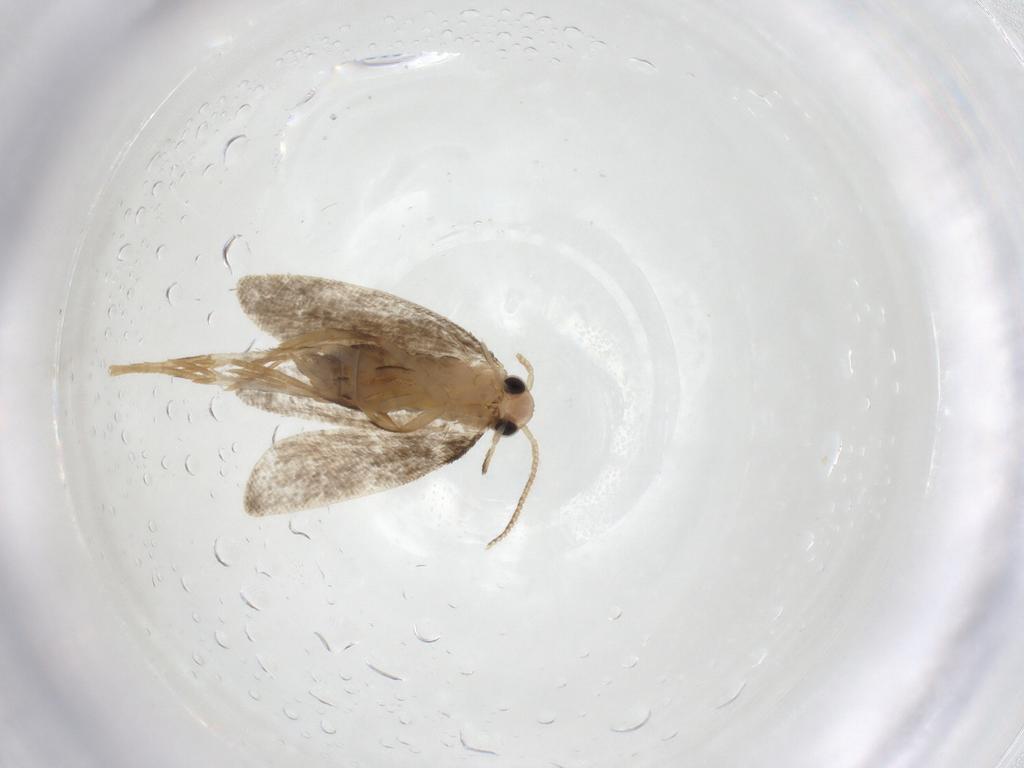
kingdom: Animalia
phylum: Arthropoda
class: Insecta
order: Lepidoptera
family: Psychidae
